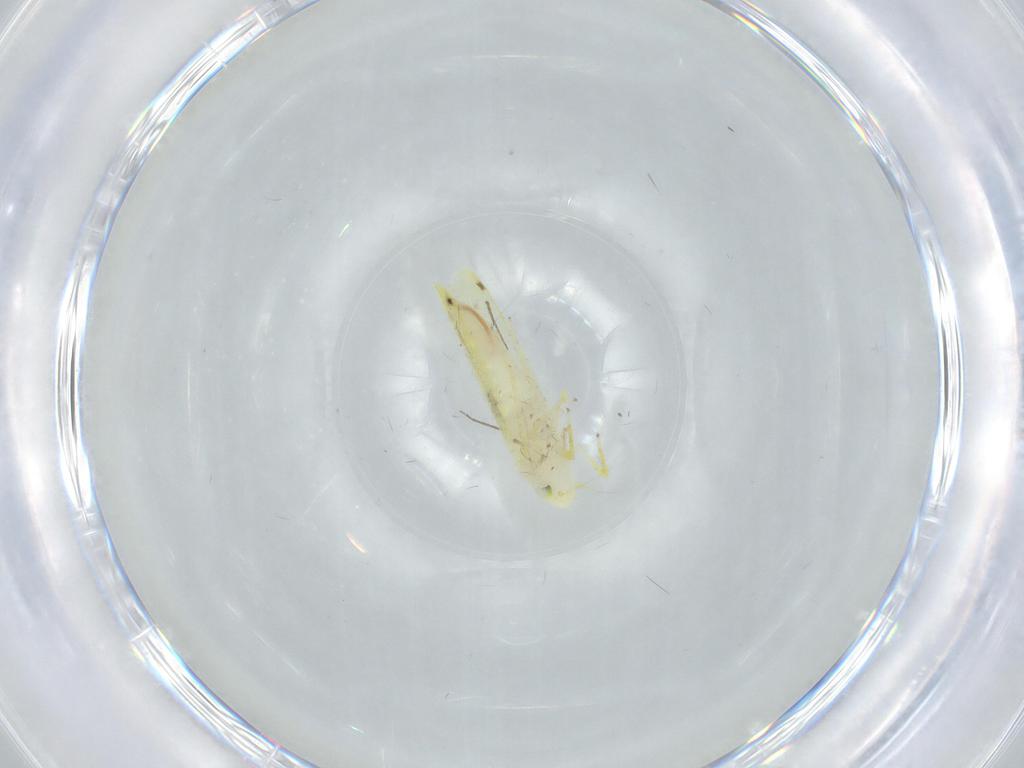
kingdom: Animalia
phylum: Arthropoda
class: Insecta
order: Hemiptera
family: Cicadellidae
